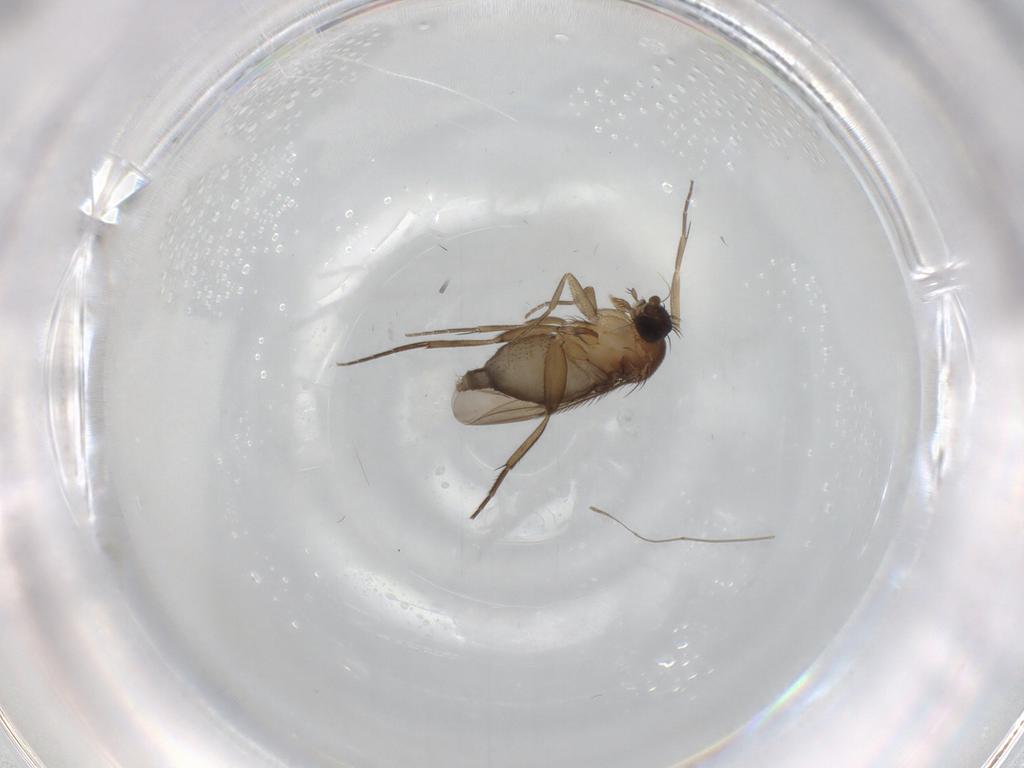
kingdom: Animalia
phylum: Arthropoda
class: Insecta
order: Diptera
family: Phoridae
